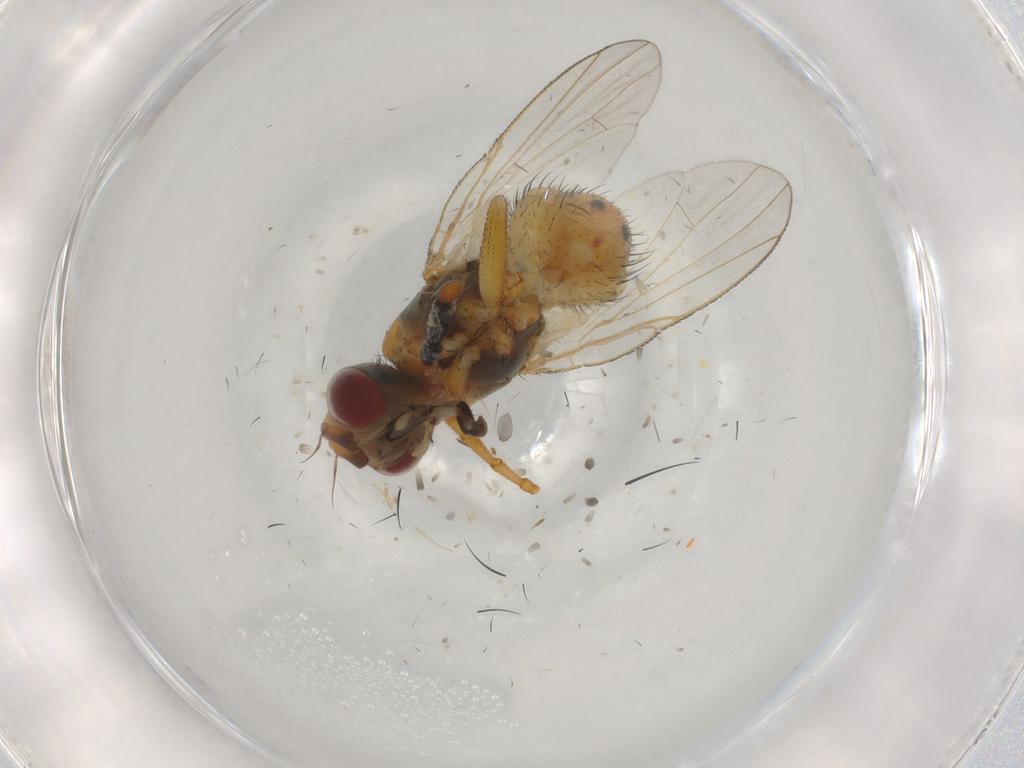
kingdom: Animalia
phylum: Arthropoda
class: Insecta
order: Diptera
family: Muscidae
